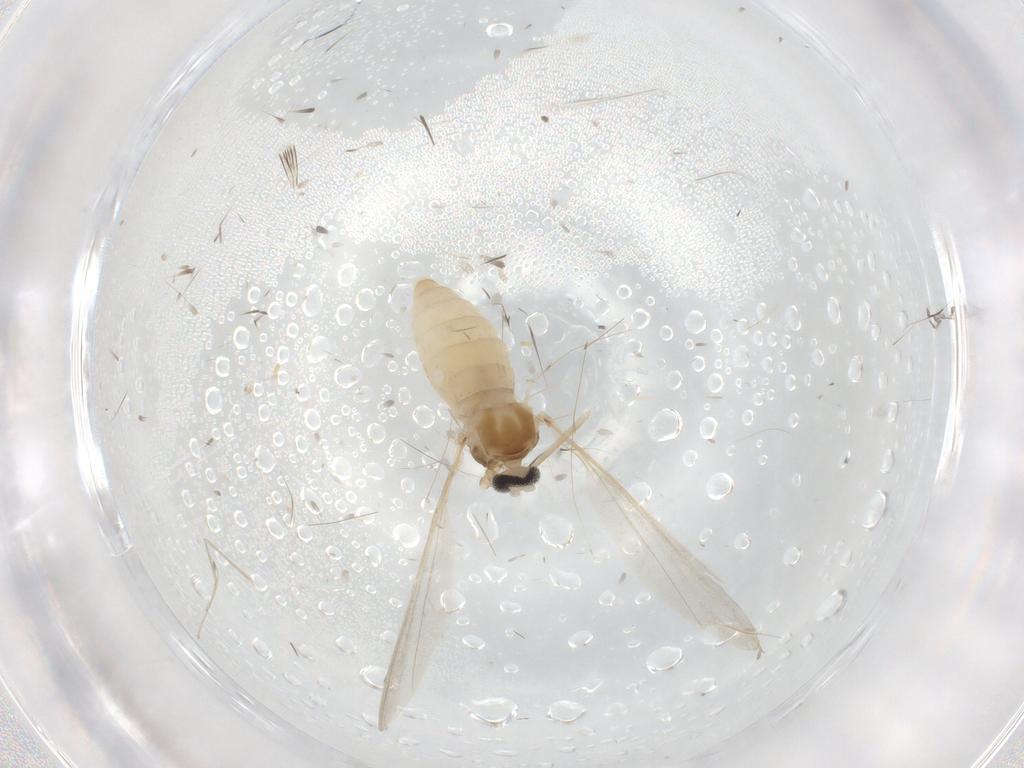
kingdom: Animalia
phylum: Arthropoda
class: Insecta
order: Diptera
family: Cecidomyiidae
